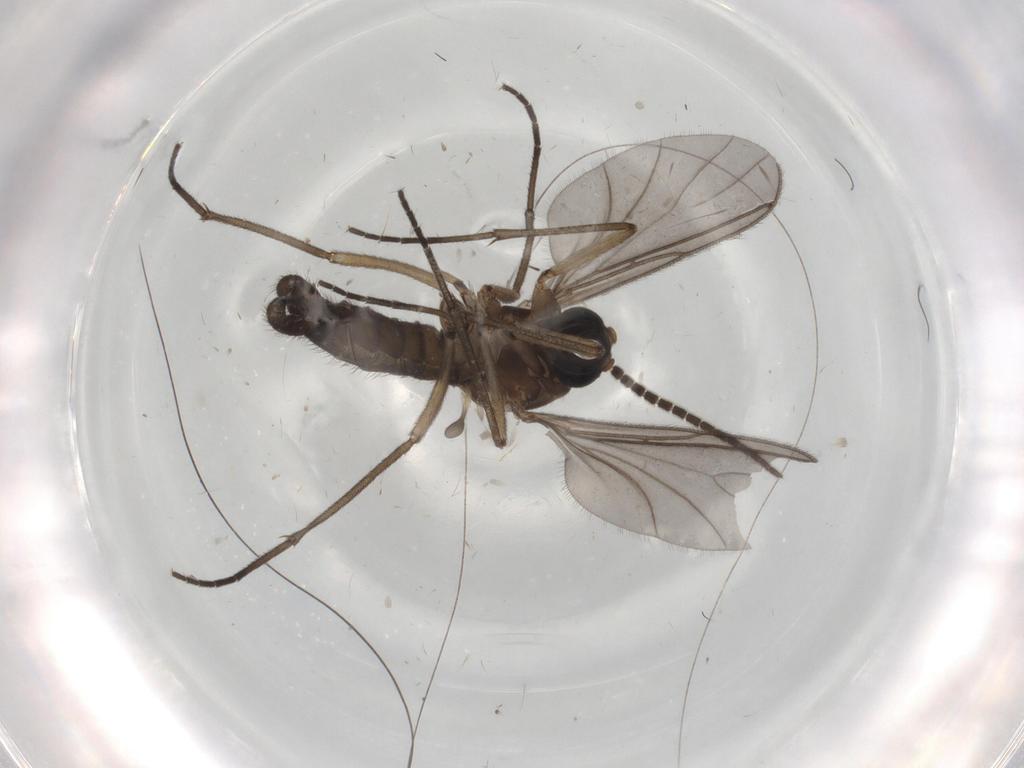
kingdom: Animalia
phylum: Arthropoda
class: Insecta
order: Diptera
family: Sciaridae
